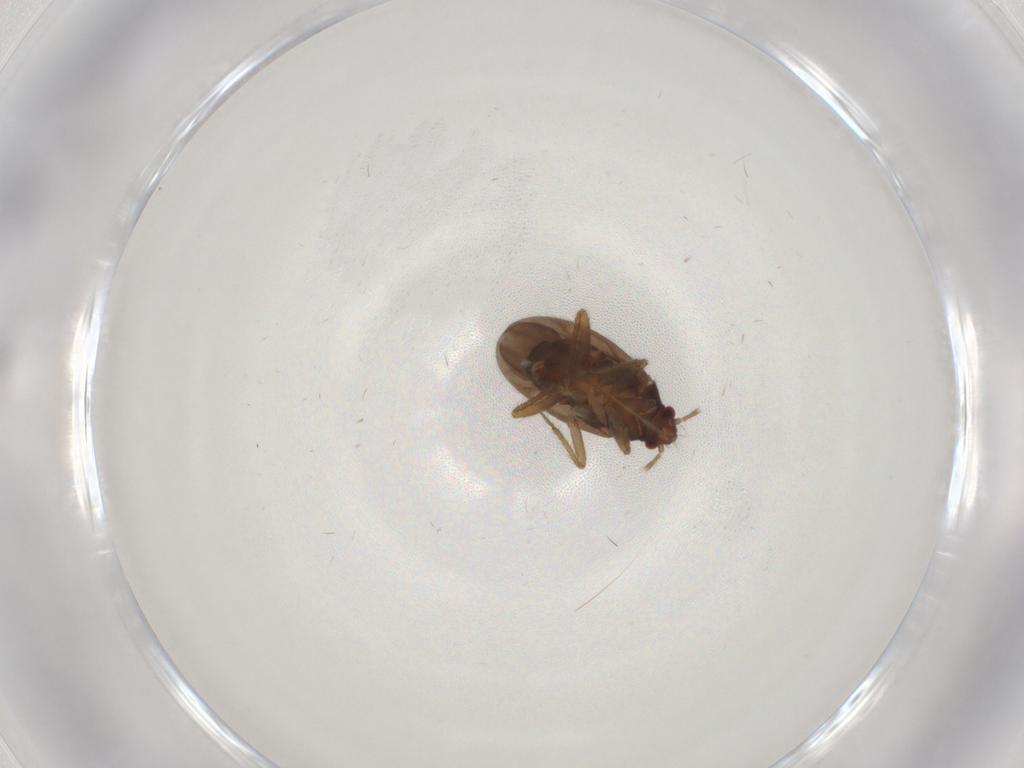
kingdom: Animalia
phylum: Arthropoda
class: Insecta
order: Hemiptera
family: Ceratocombidae
